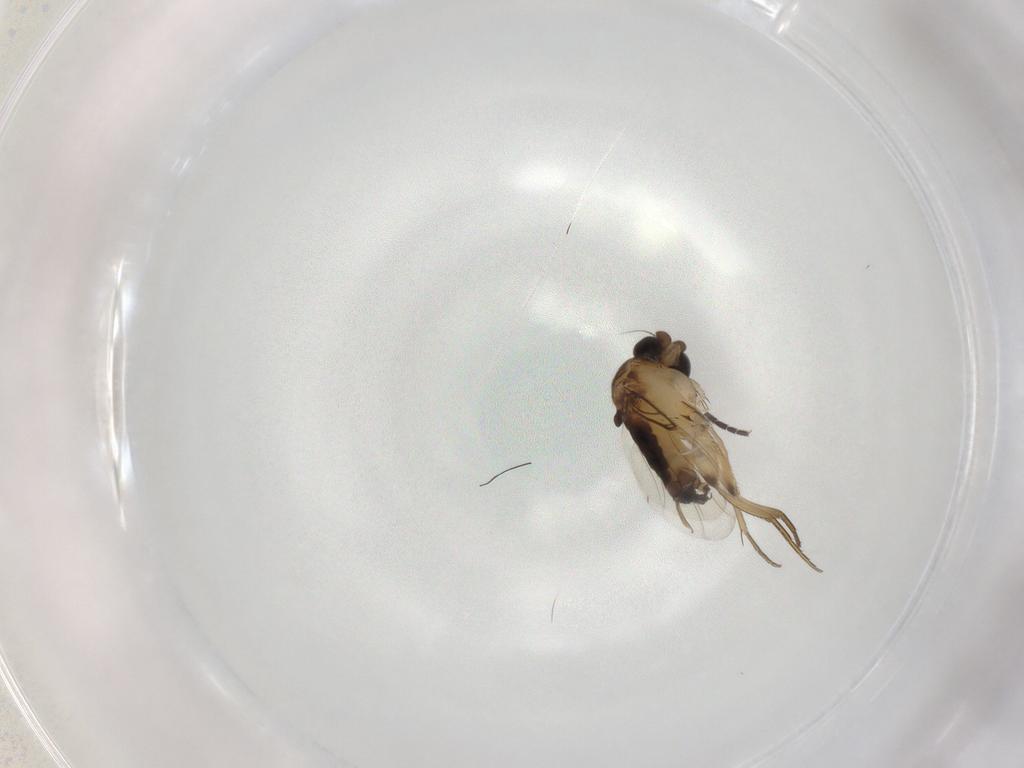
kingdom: Animalia
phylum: Arthropoda
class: Insecta
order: Diptera
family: Phoridae
